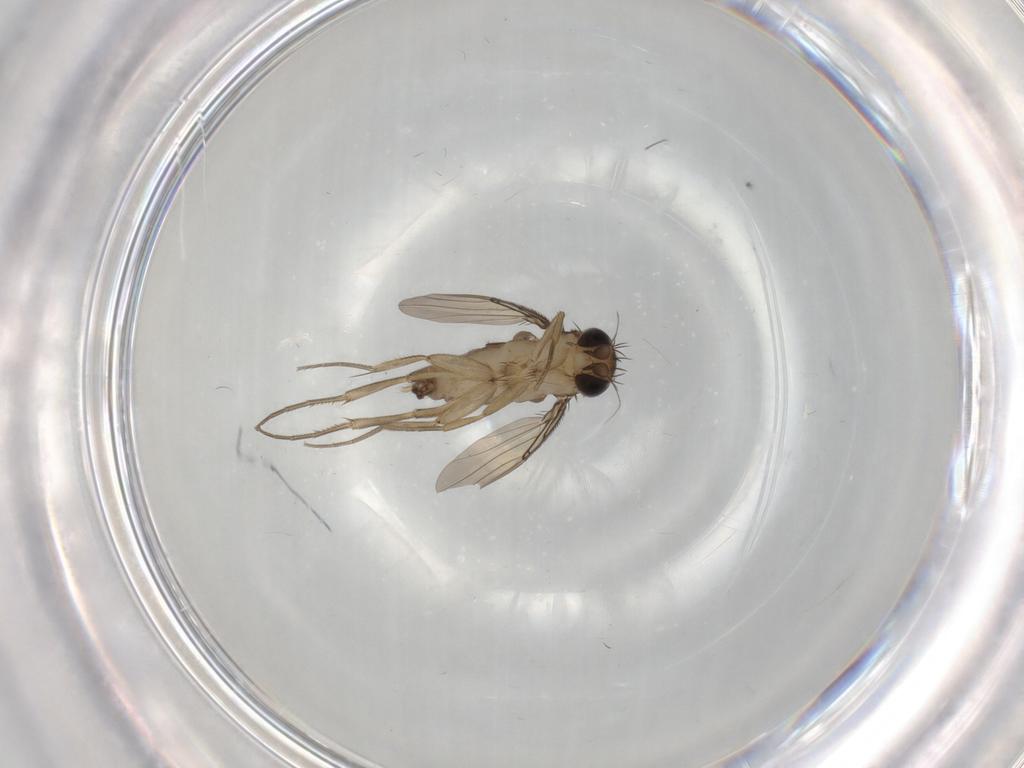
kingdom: Animalia
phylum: Arthropoda
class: Insecta
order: Diptera
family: Phoridae
